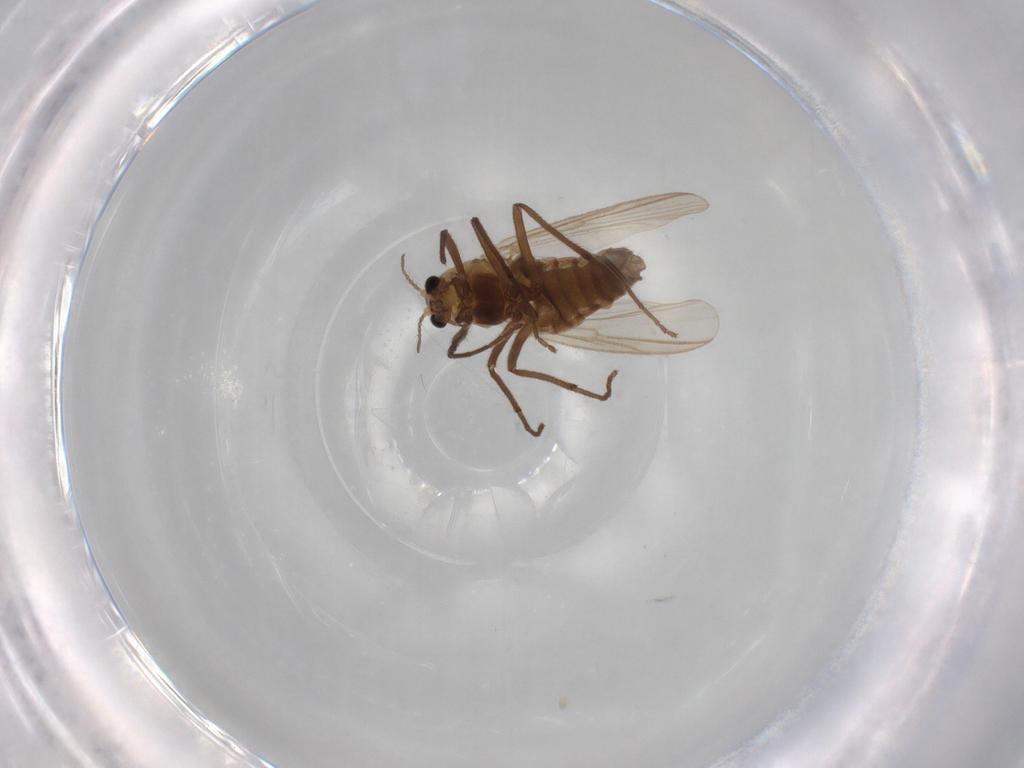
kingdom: Animalia
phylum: Arthropoda
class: Insecta
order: Diptera
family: Chironomidae
